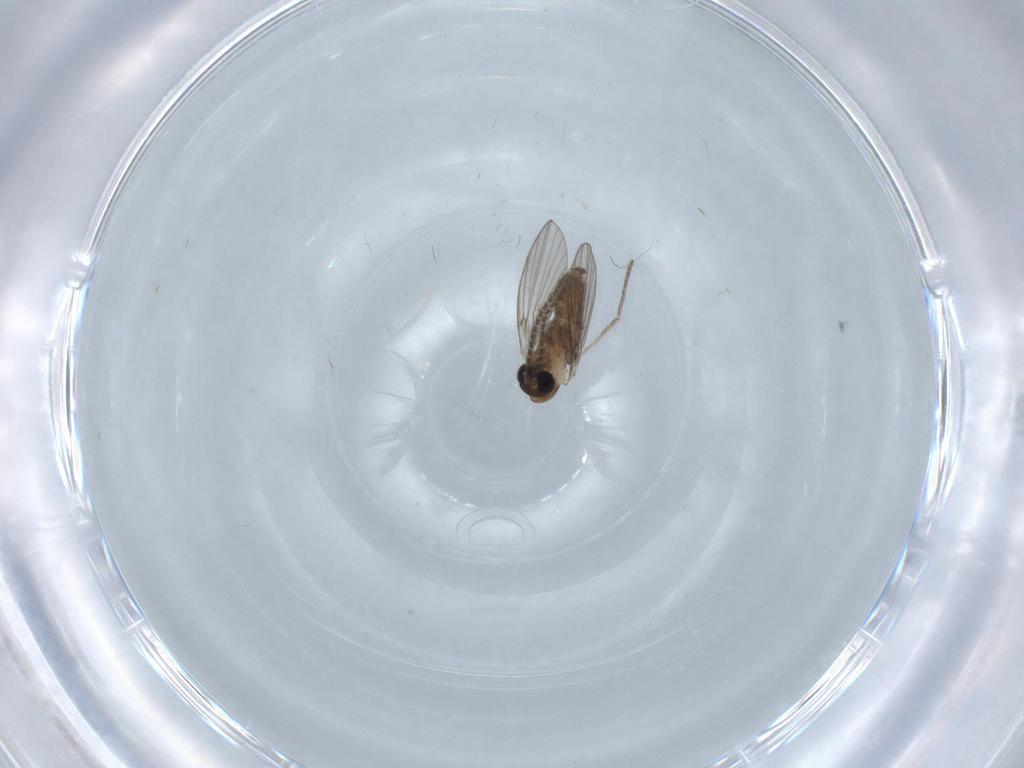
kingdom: Animalia
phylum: Arthropoda
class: Insecta
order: Diptera
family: Chironomidae
